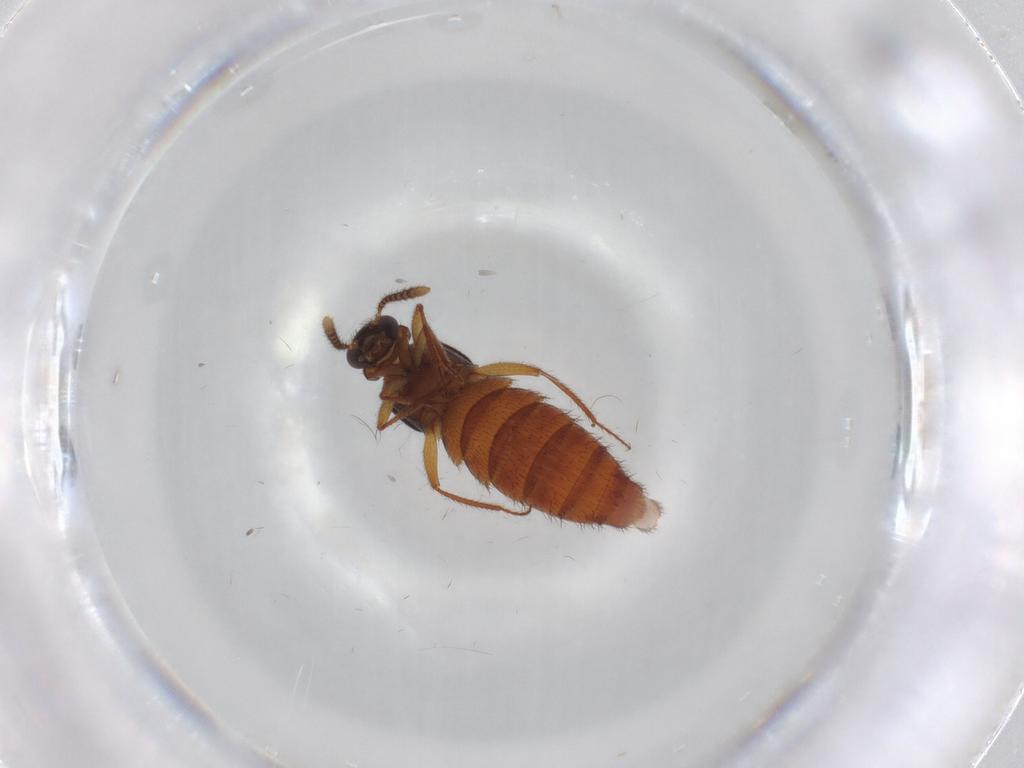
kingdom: Animalia
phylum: Arthropoda
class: Insecta
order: Coleoptera
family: Staphylinidae
